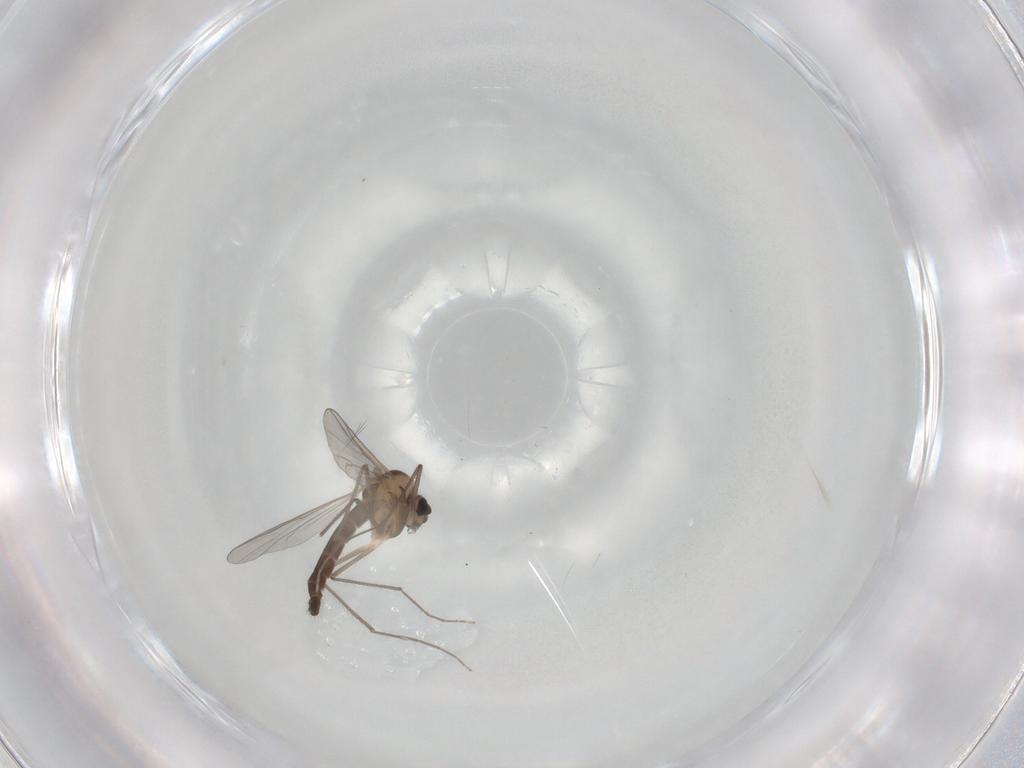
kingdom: Animalia
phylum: Arthropoda
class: Insecta
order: Diptera
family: Chironomidae
